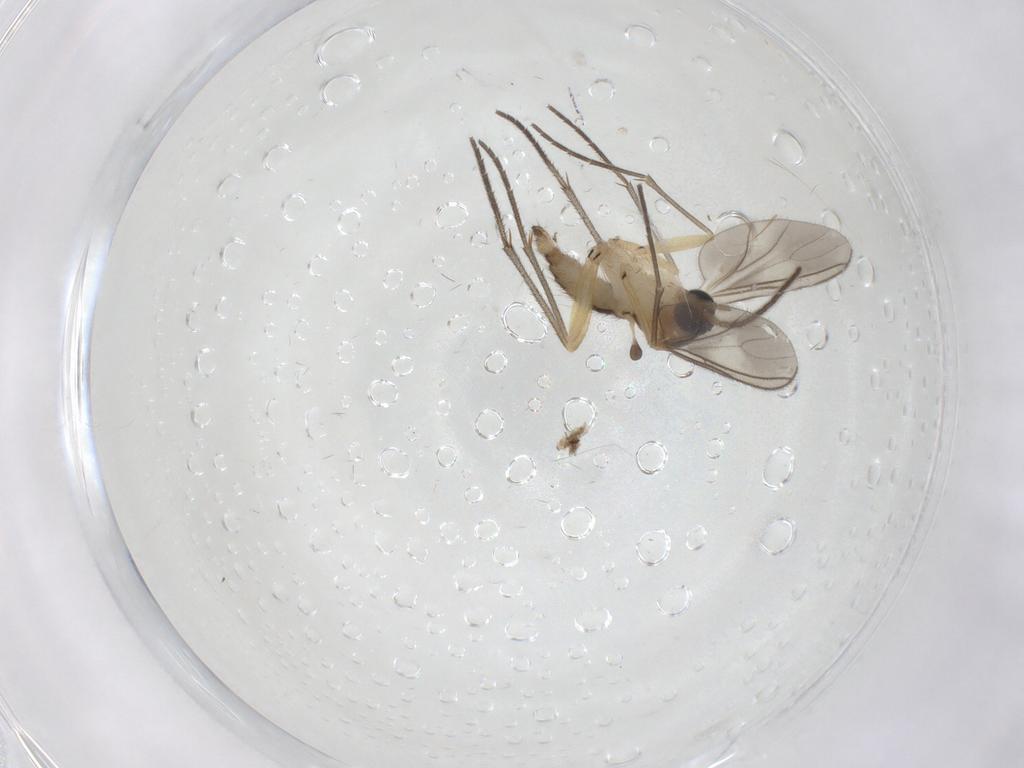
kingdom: Animalia
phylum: Arthropoda
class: Insecta
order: Diptera
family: Sciaridae
